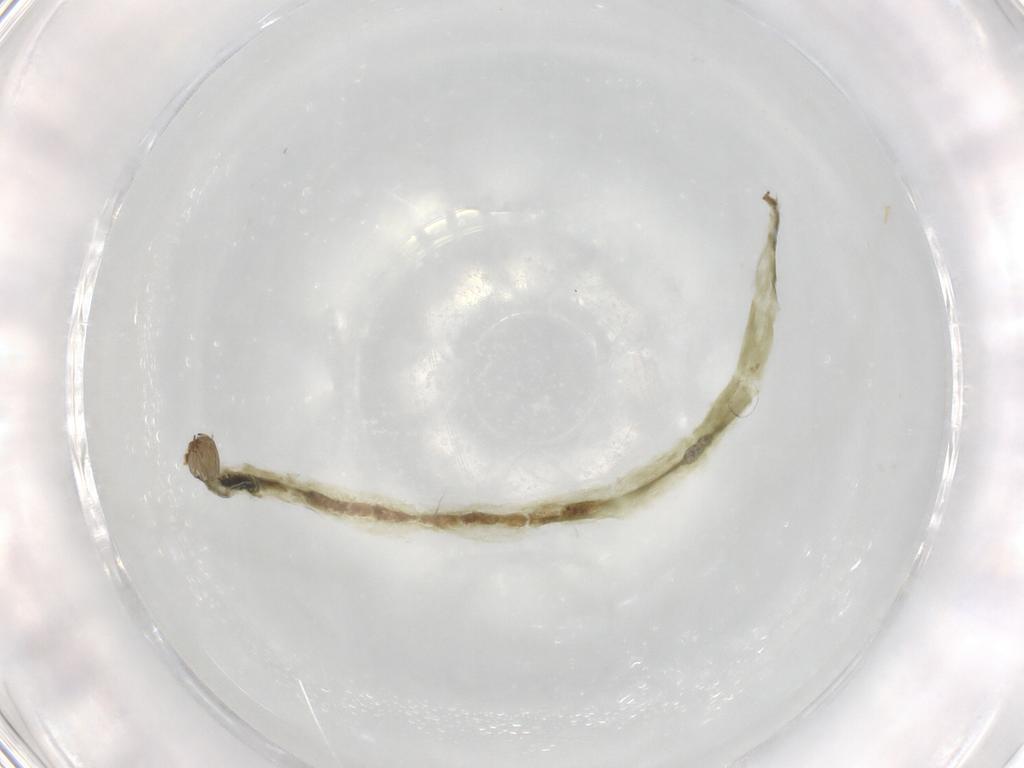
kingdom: Animalia
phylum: Arthropoda
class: Insecta
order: Diptera
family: Chironomidae
